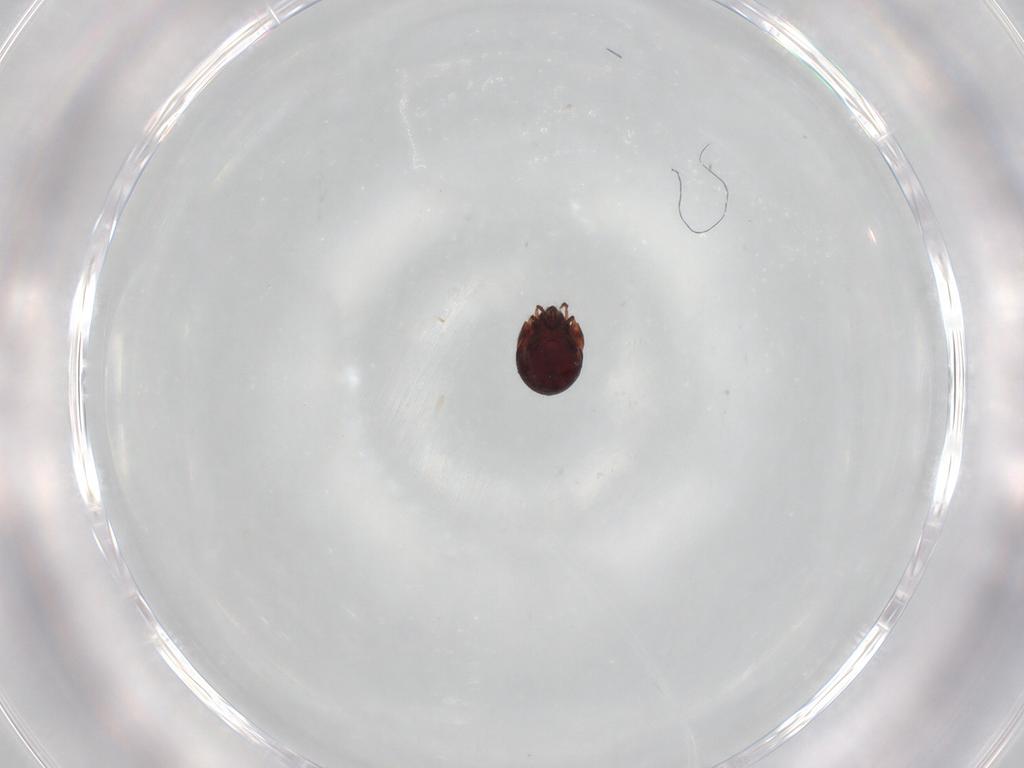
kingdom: Animalia
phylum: Arthropoda
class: Arachnida
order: Sarcoptiformes
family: Humerobatidae
